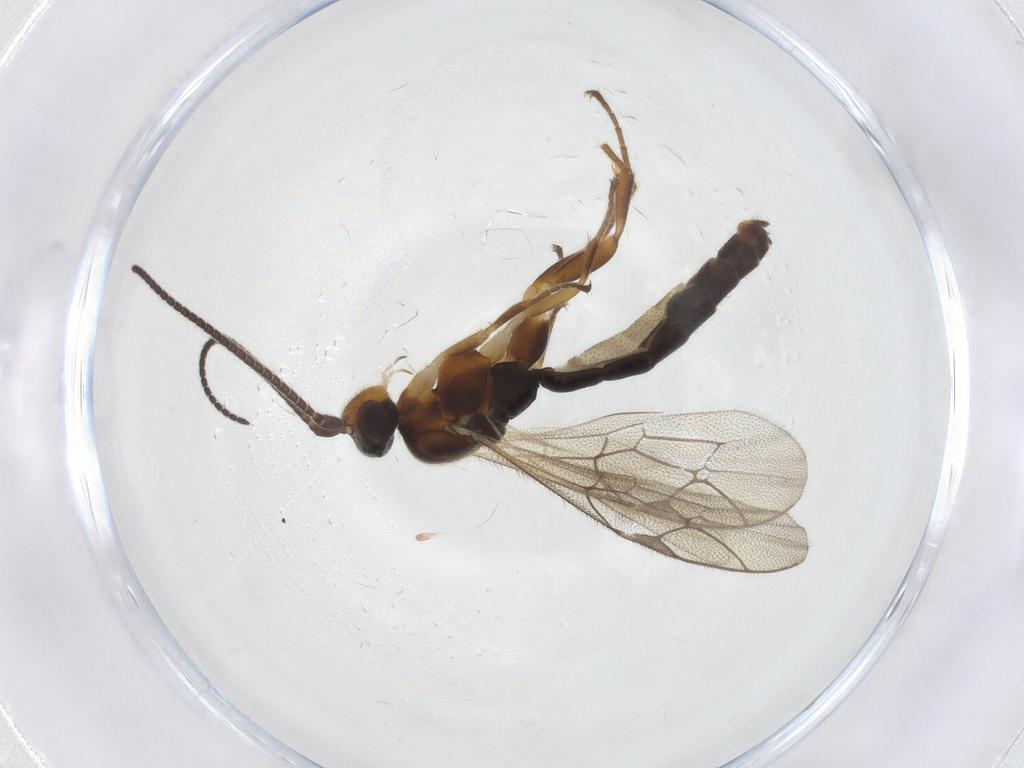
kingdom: Animalia
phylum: Arthropoda
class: Insecta
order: Hymenoptera
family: Ichneumonidae
